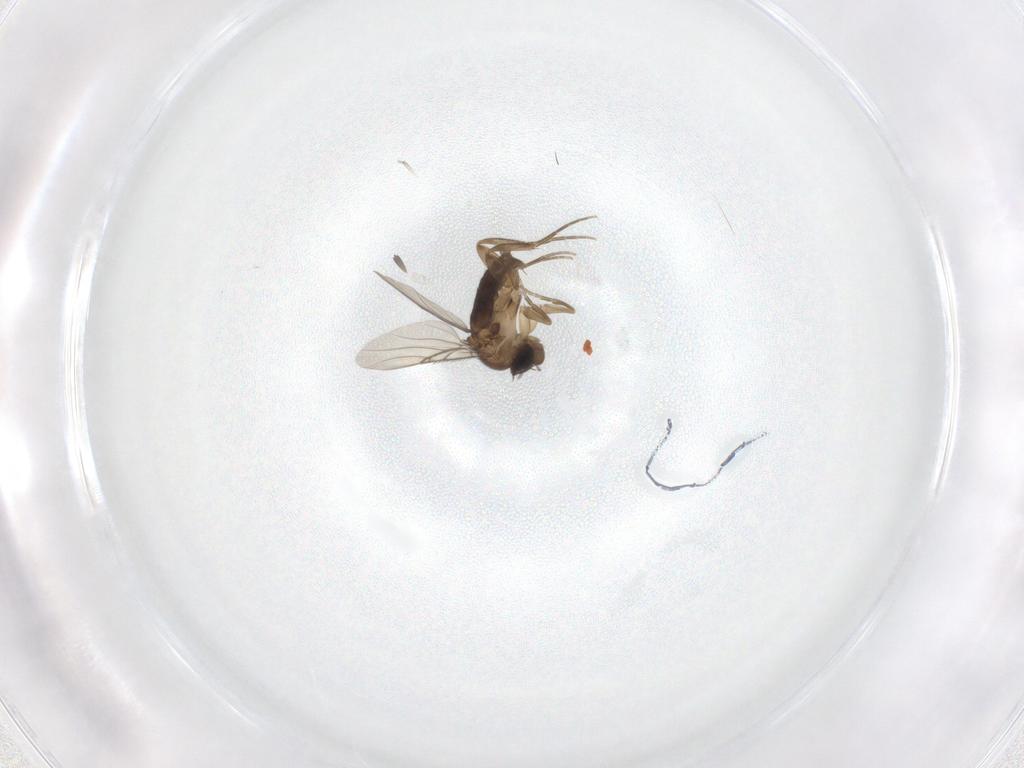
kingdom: Animalia
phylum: Arthropoda
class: Insecta
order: Diptera
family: Phoridae
